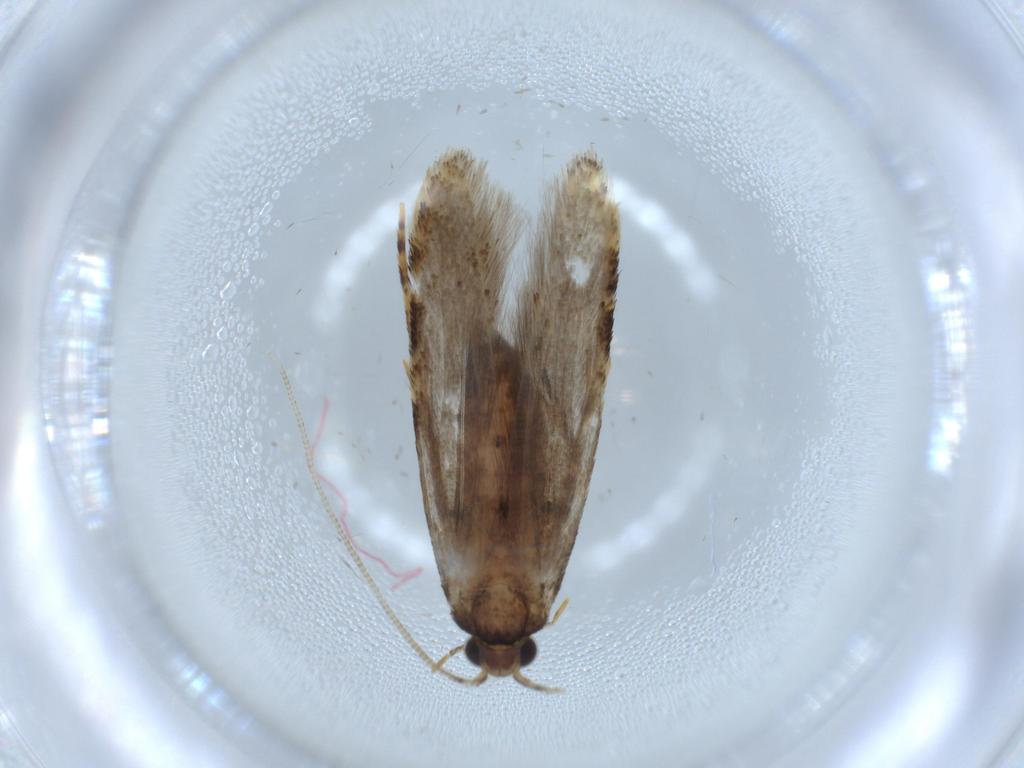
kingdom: Animalia
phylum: Arthropoda
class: Insecta
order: Lepidoptera
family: Tineidae
